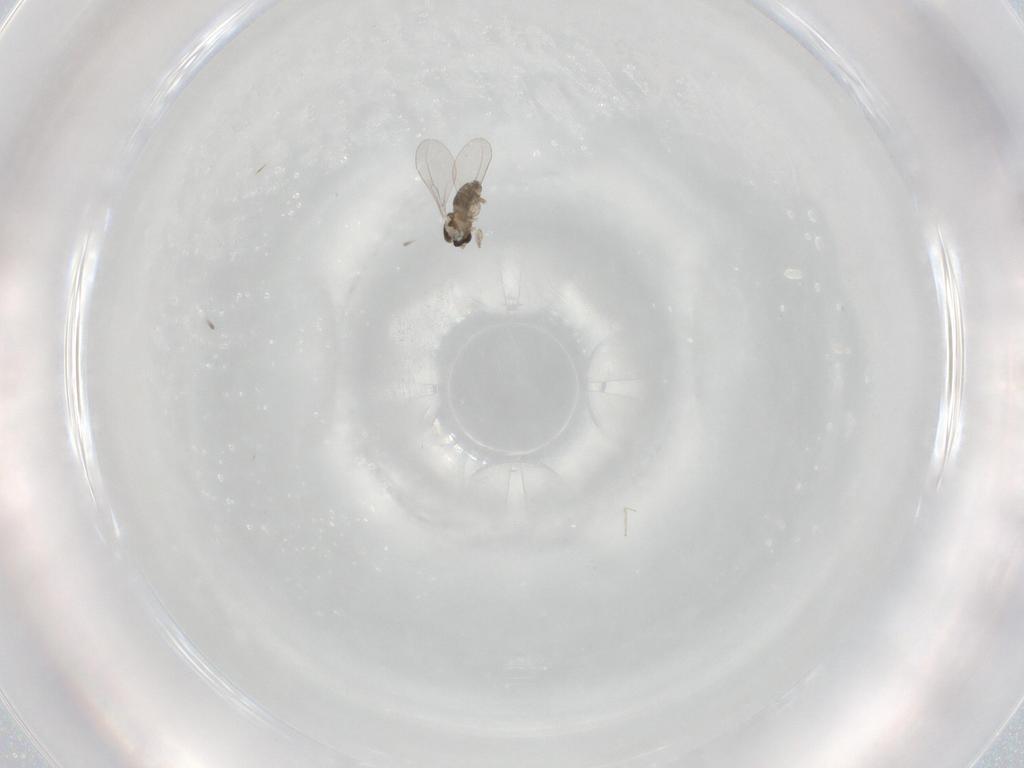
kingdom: Animalia
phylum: Arthropoda
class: Insecta
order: Diptera
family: Cecidomyiidae
